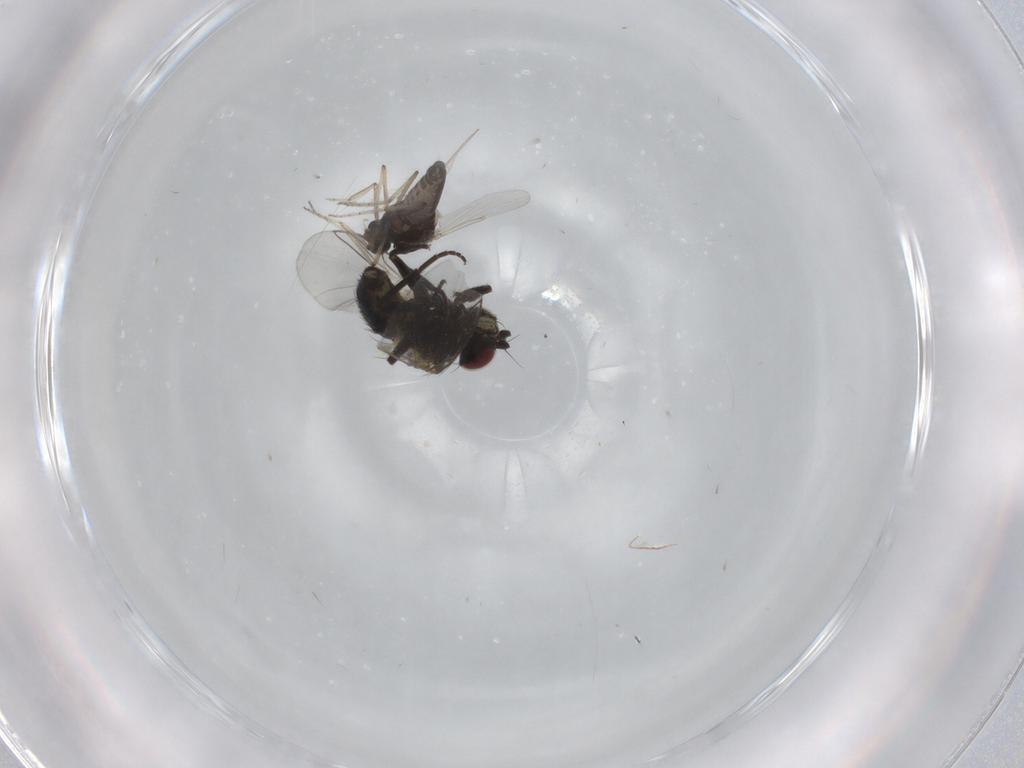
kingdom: Animalia
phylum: Arthropoda
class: Insecta
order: Diptera
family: Ceratopogonidae
